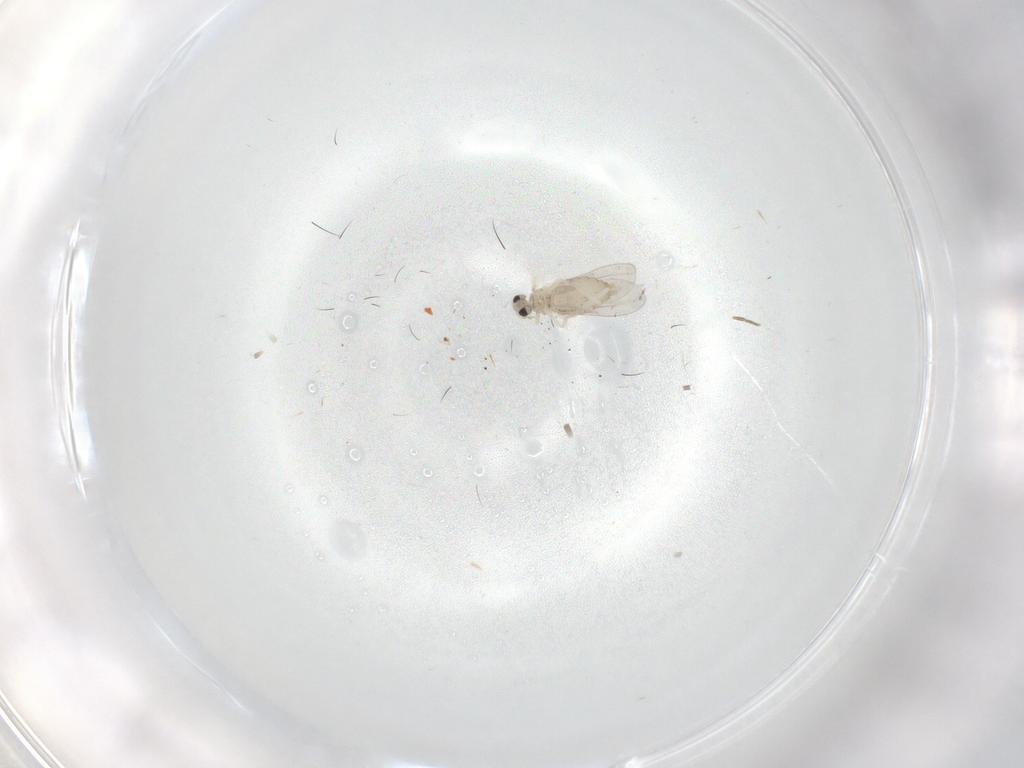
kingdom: Animalia
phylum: Arthropoda
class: Insecta
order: Diptera
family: Cecidomyiidae
